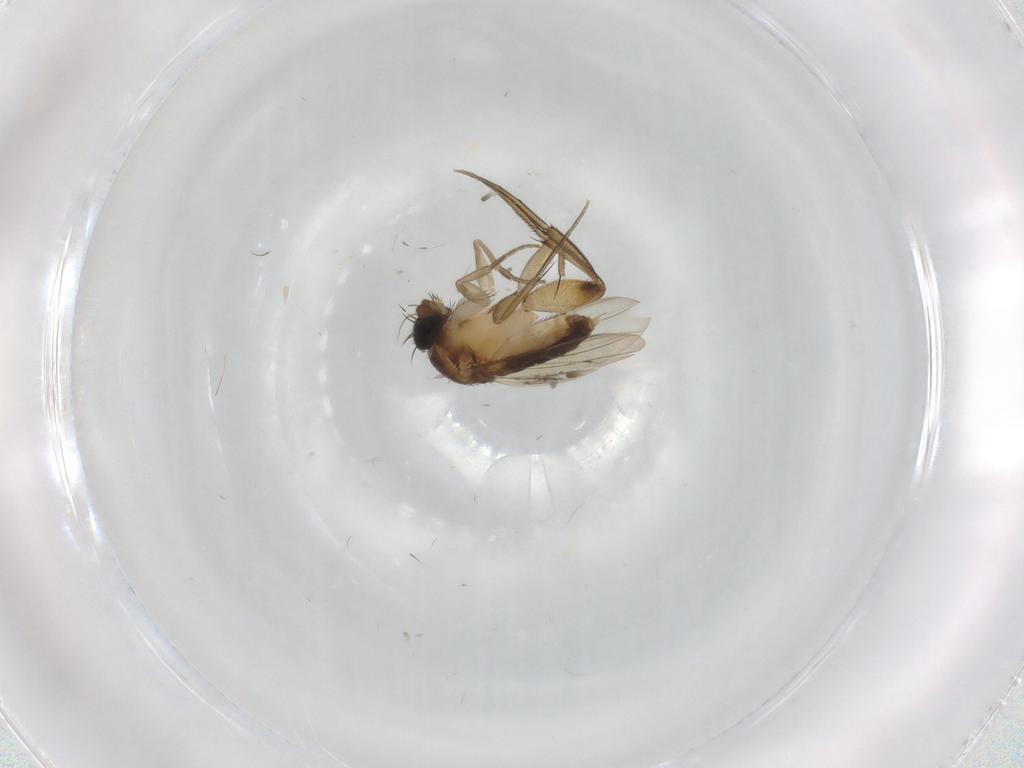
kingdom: Animalia
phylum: Arthropoda
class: Insecta
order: Diptera
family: Phoridae
